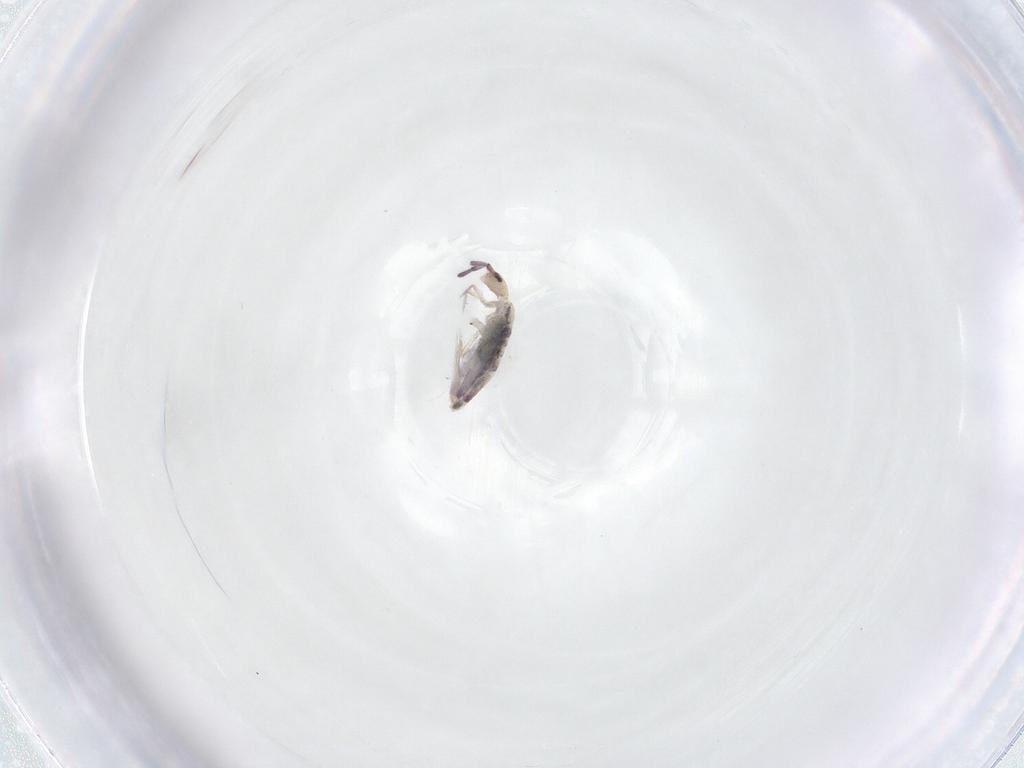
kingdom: Animalia
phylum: Arthropoda
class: Collembola
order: Entomobryomorpha
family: Entomobryidae
